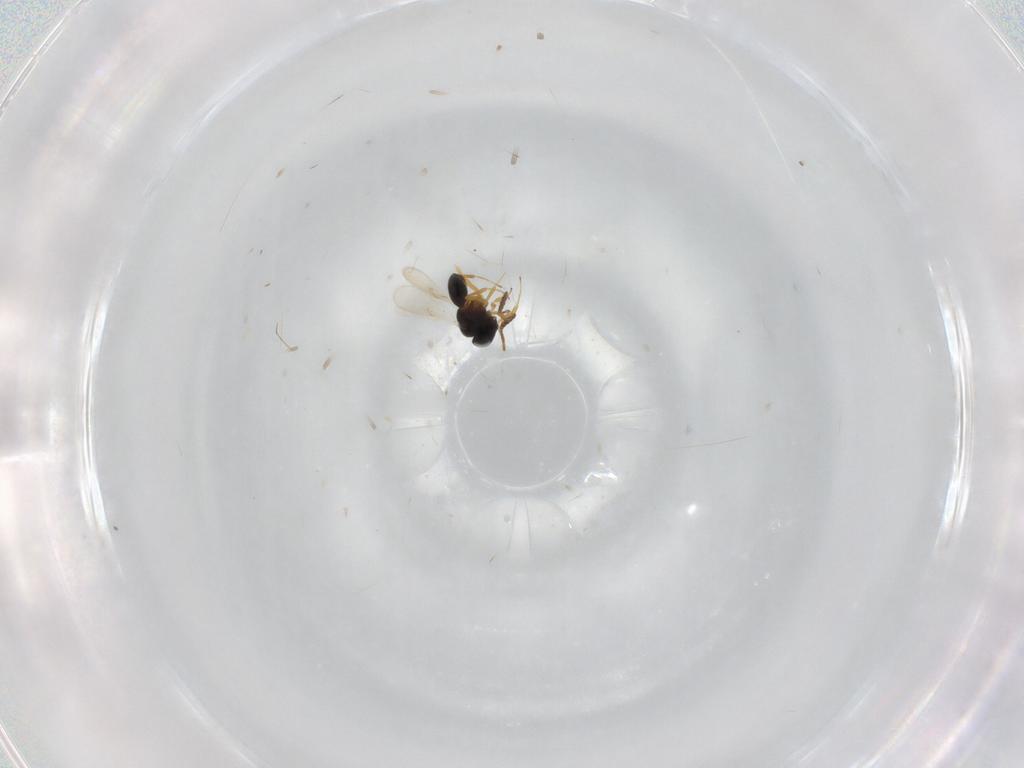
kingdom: Animalia
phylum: Arthropoda
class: Insecta
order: Hymenoptera
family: Scelionidae
